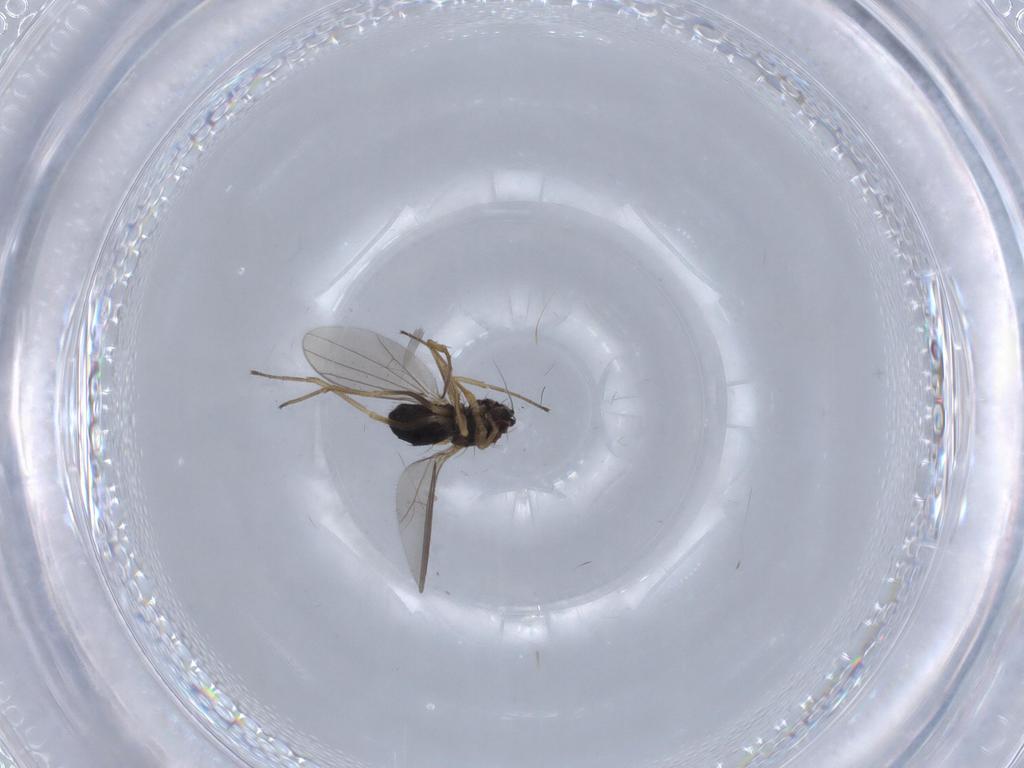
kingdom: Animalia
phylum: Arthropoda
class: Insecta
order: Diptera
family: Dolichopodidae
